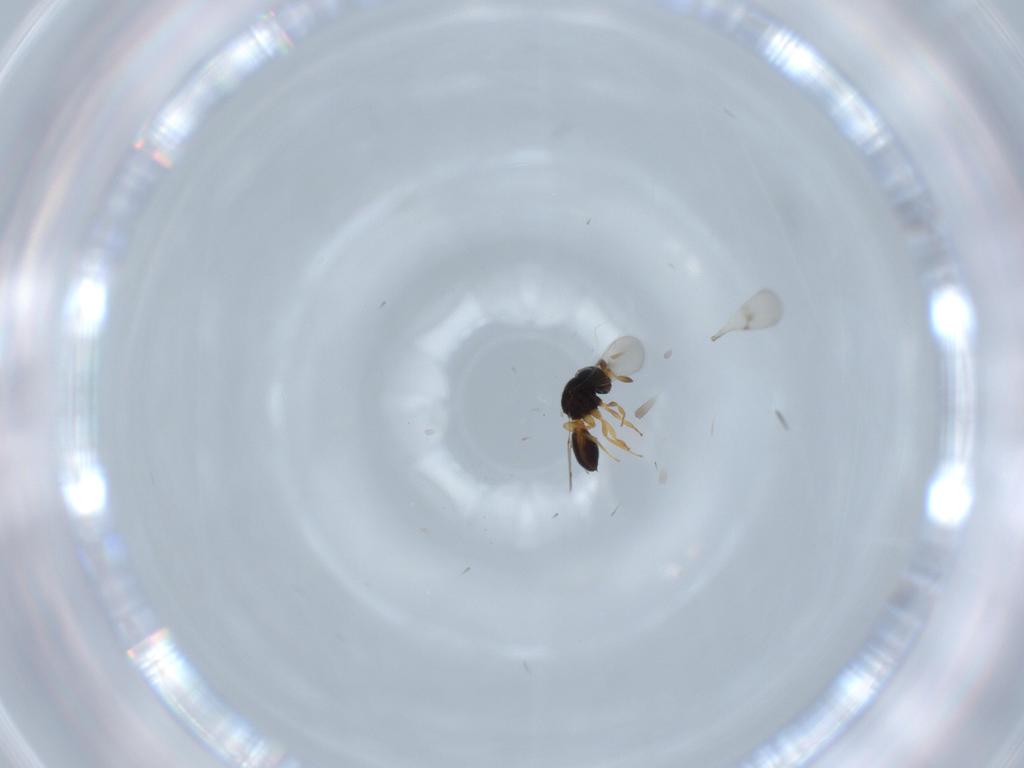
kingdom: Animalia
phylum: Arthropoda
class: Insecta
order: Hymenoptera
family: Scelionidae
